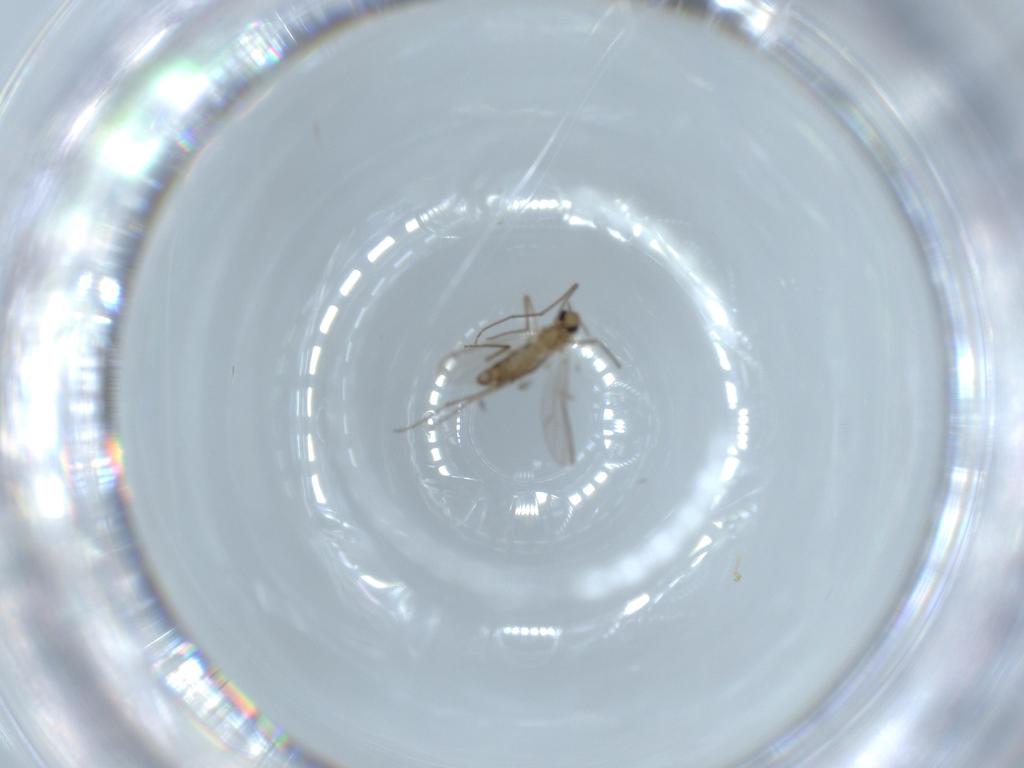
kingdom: Animalia
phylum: Arthropoda
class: Insecta
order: Diptera
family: Chironomidae
